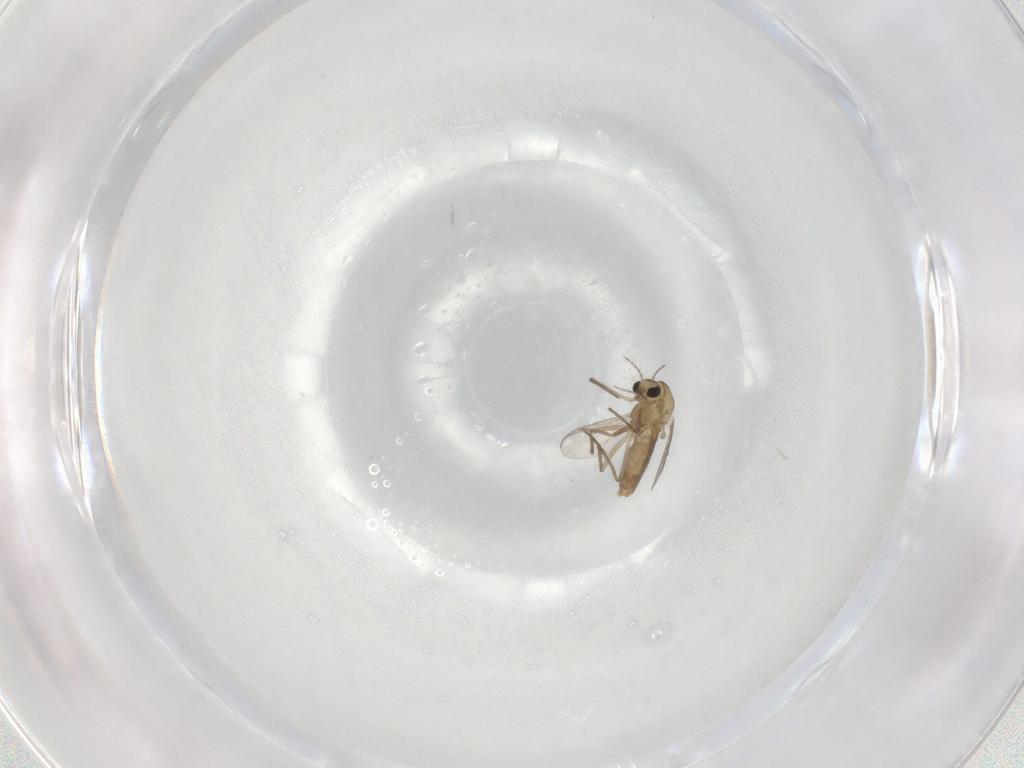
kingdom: Animalia
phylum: Arthropoda
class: Insecta
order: Diptera
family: Chironomidae
